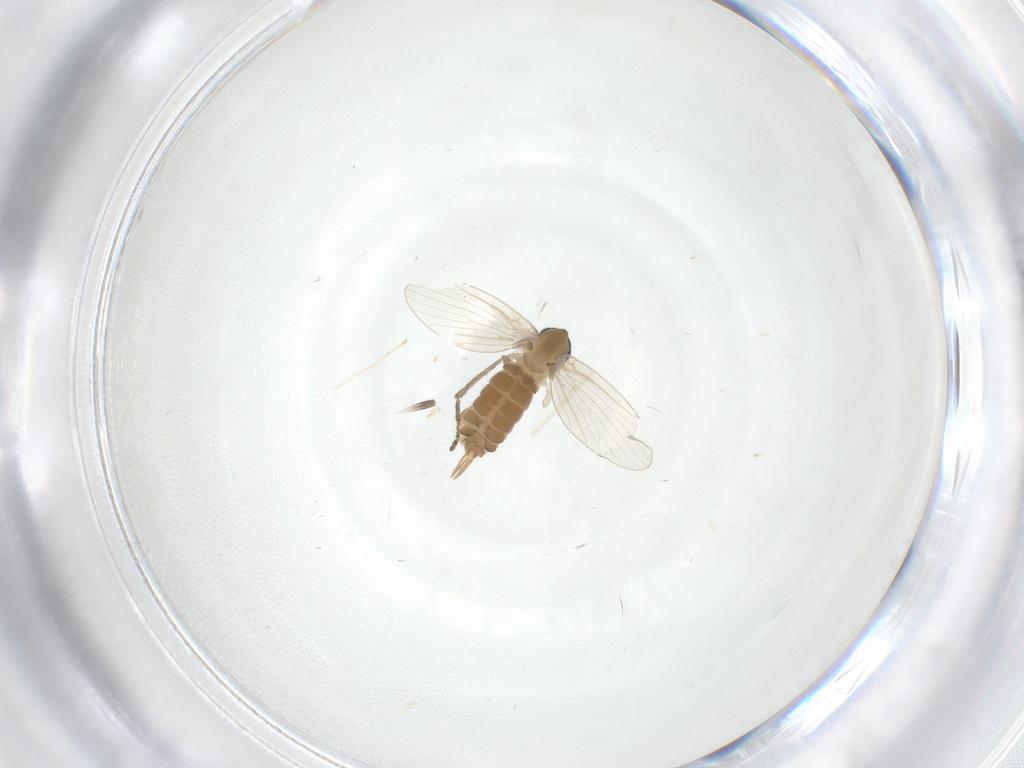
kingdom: Animalia
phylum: Arthropoda
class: Insecta
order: Diptera
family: Psychodidae
